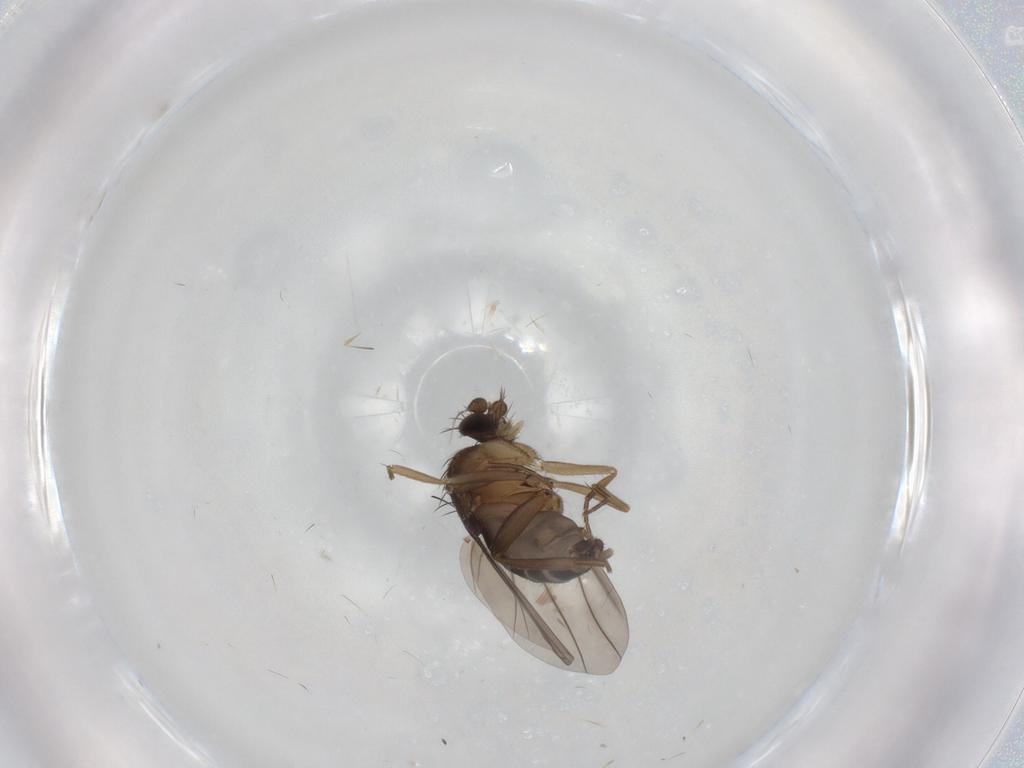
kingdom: Animalia
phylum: Arthropoda
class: Insecta
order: Diptera
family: Phoridae
